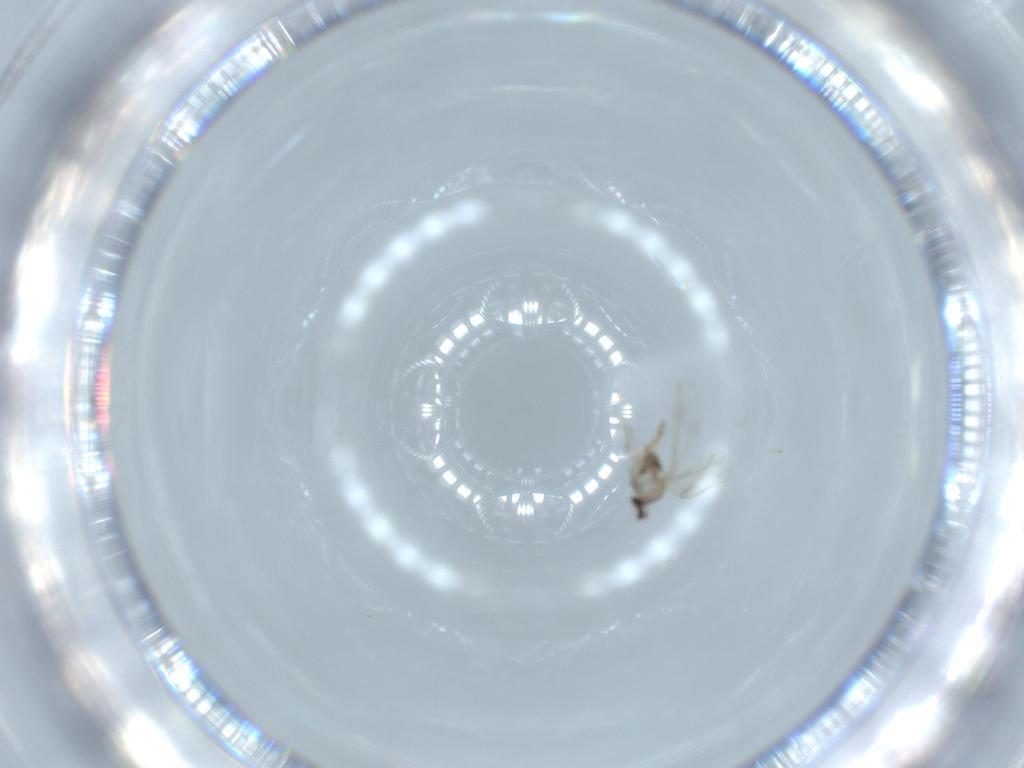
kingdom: Animalia
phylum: Arthropoda
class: Insecta
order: Diptera
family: Cecidomyiidae
